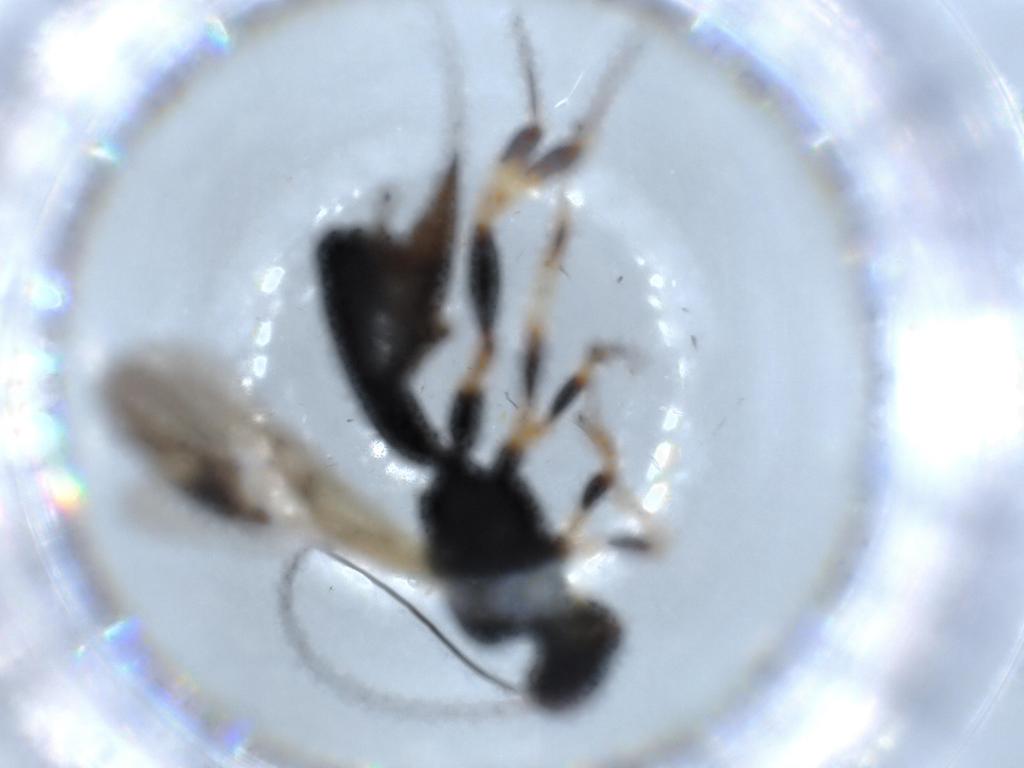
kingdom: Animalia
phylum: Arthropoda
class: Insecta
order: Hymenoptera
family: Braconidae
